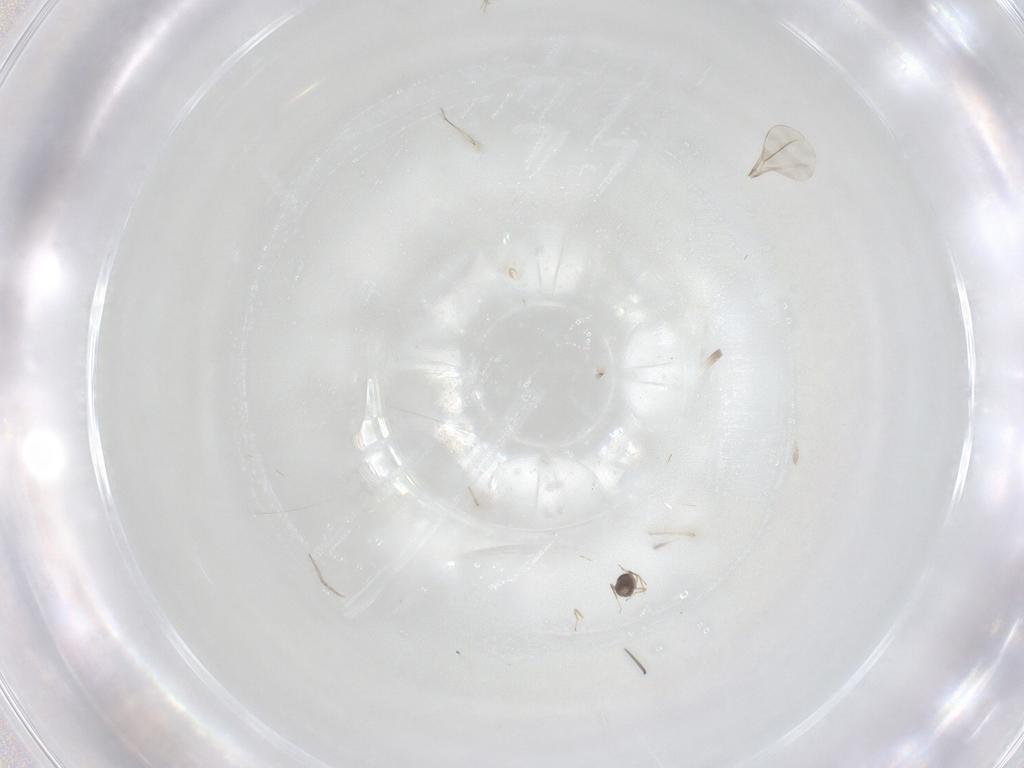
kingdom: Animalia
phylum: Arthropoda
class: Insecta
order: Diptera
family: Cecidomyiidae
